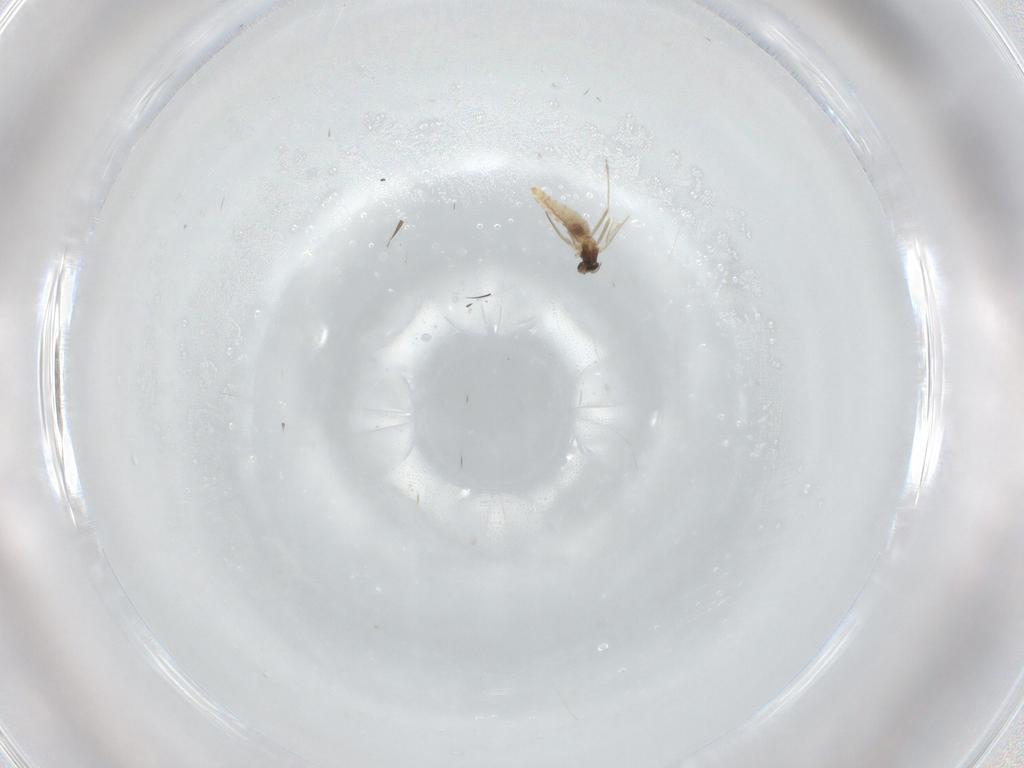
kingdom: Animalia
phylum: Arthropoda
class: Insecta
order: Diptera
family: Cecidomyiidae
